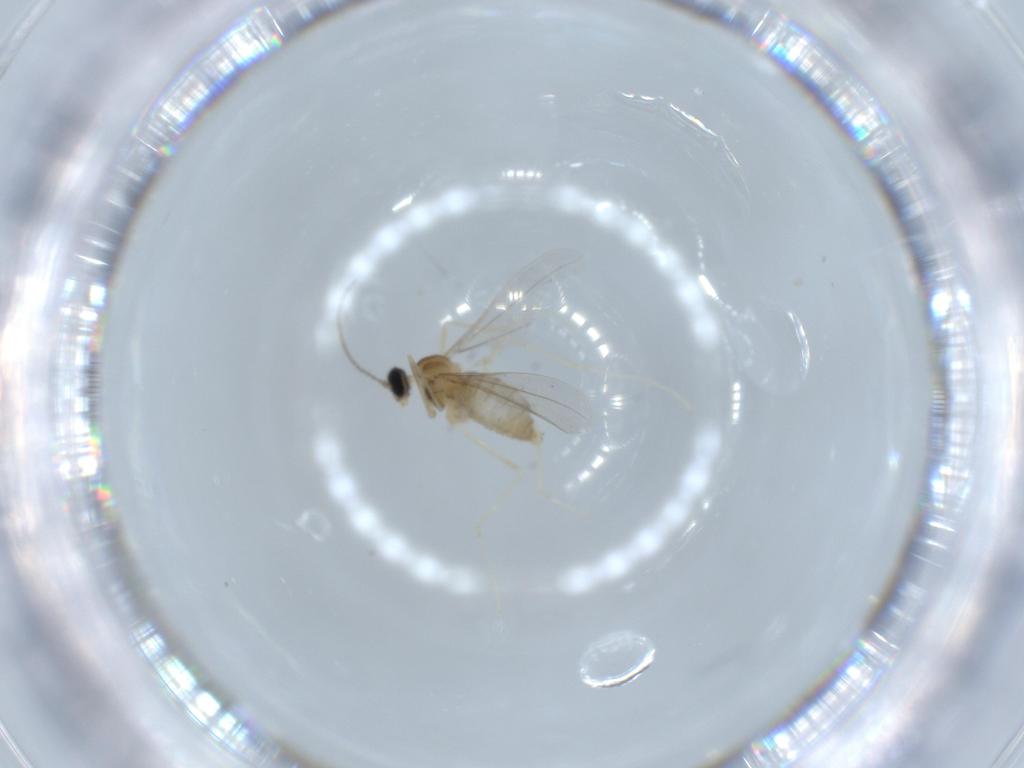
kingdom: Animalia
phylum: Arthropoda
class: Insecta
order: Diptera
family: Cecidomyiidae
